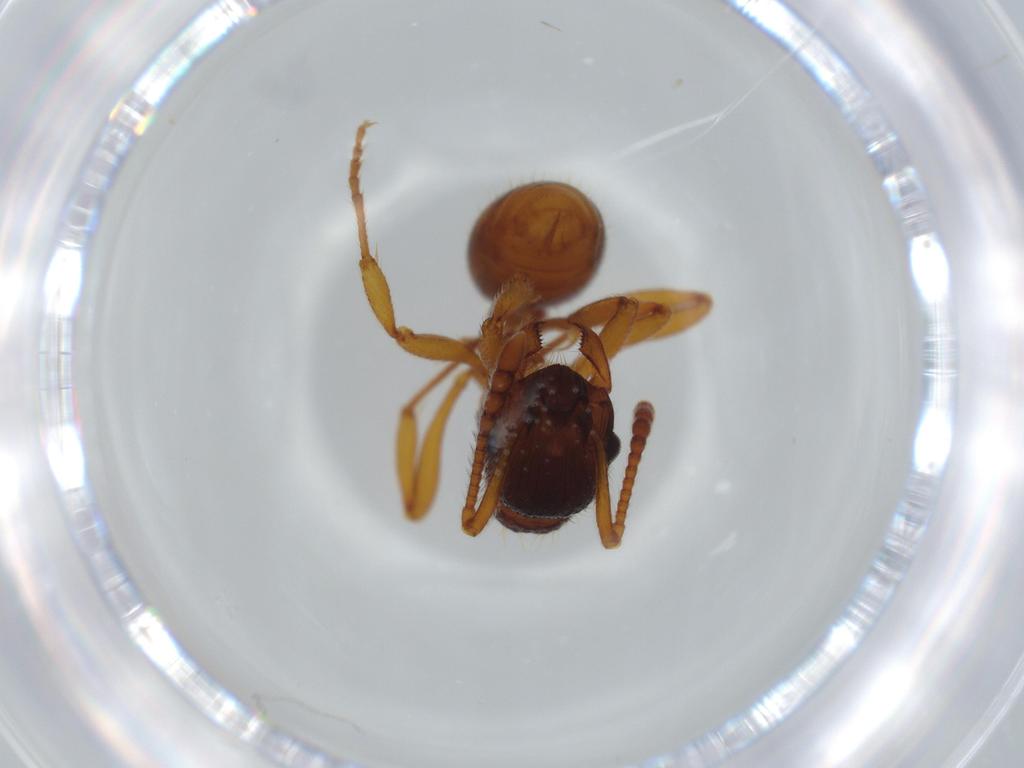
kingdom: Animalia
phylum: Arthropoda
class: Insecta
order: Hymenoptera
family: Formicidae
